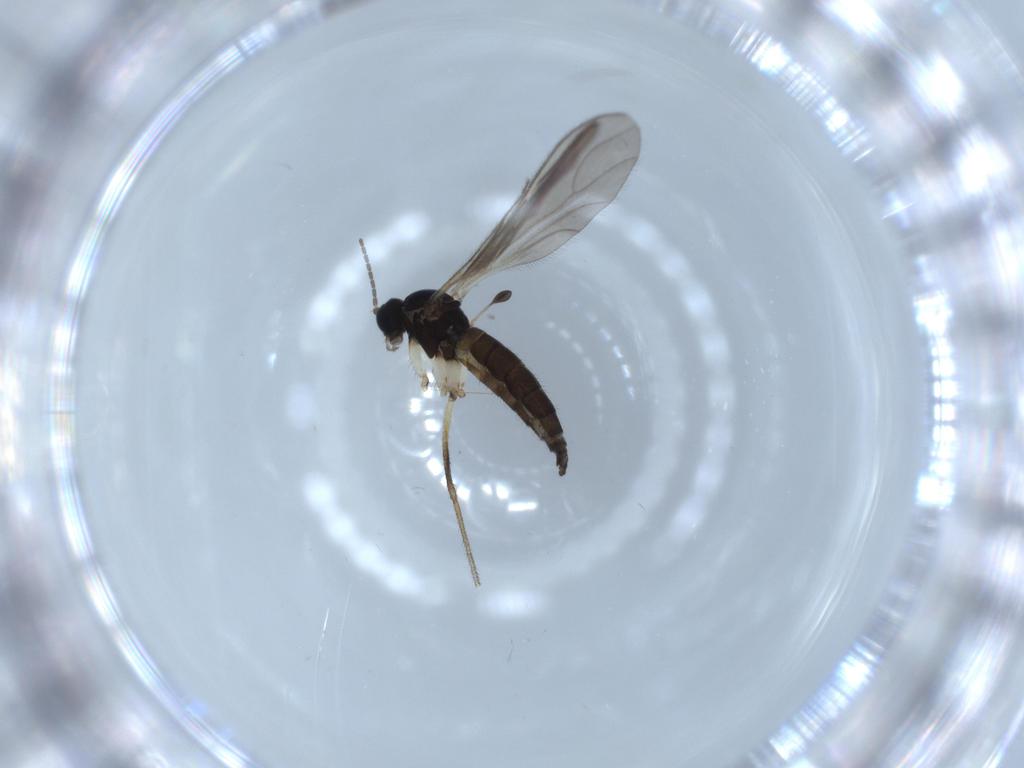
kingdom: Animalia
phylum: Arthropoda
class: Insecta
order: Diptera
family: Sciaridae
